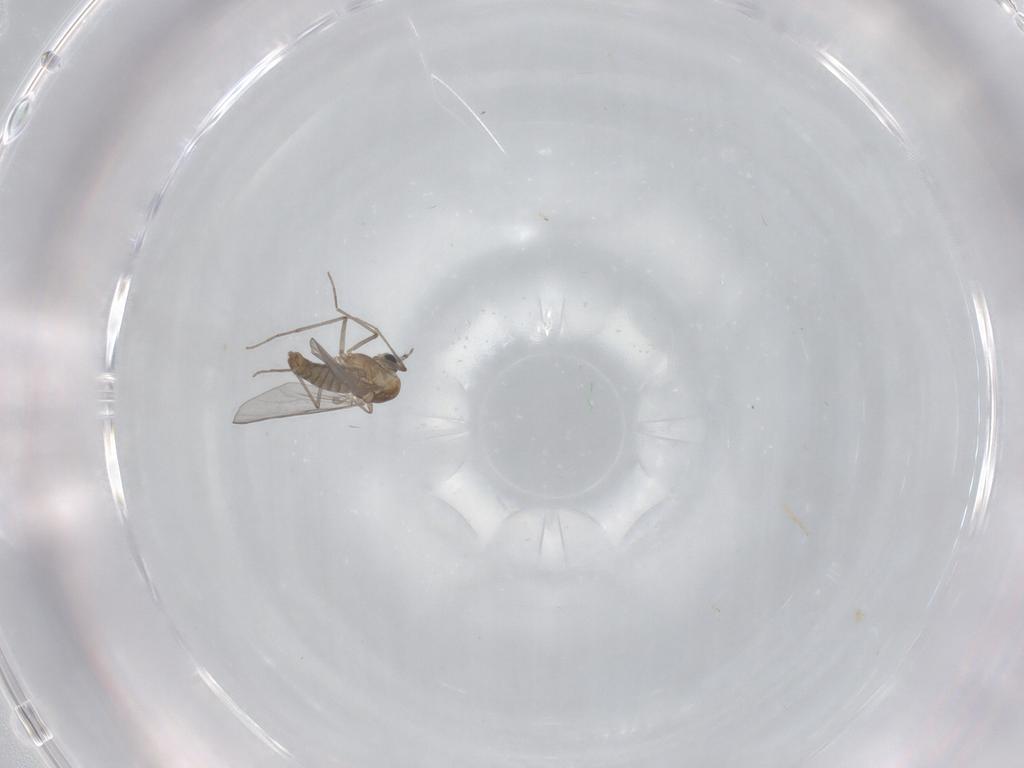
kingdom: Animalia
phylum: Arthropoda
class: Insecta
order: Diptera
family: Chironomidae
